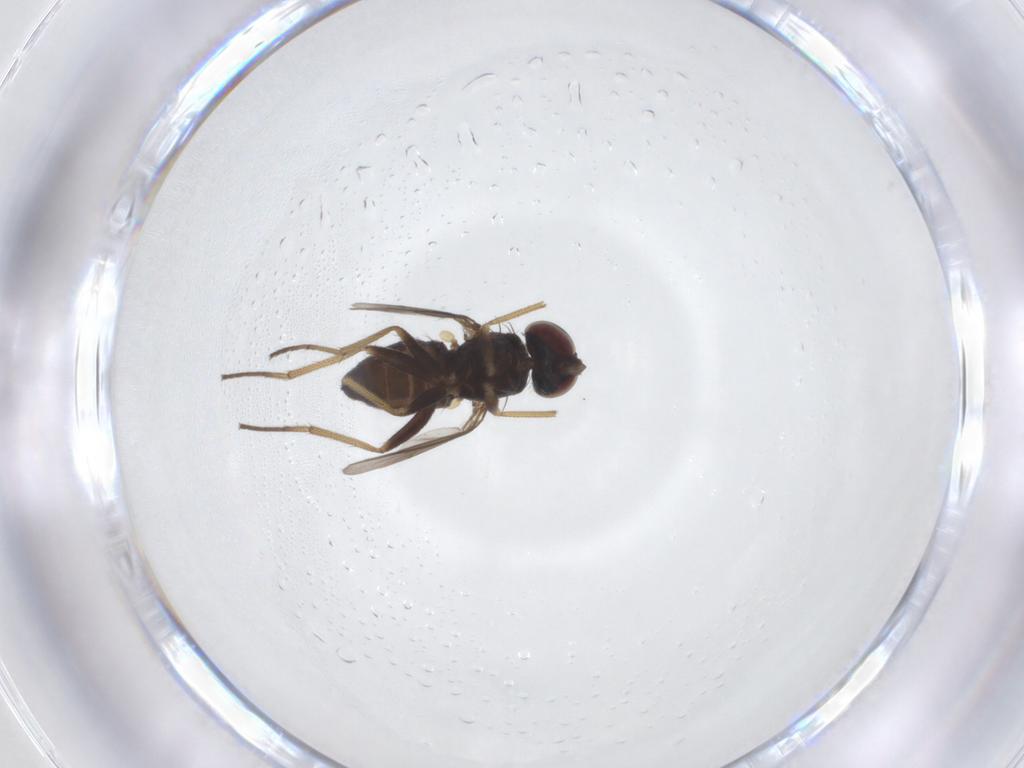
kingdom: Animalia
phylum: Arthropoda
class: Insecta
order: Diptera
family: Dolichopodidae
